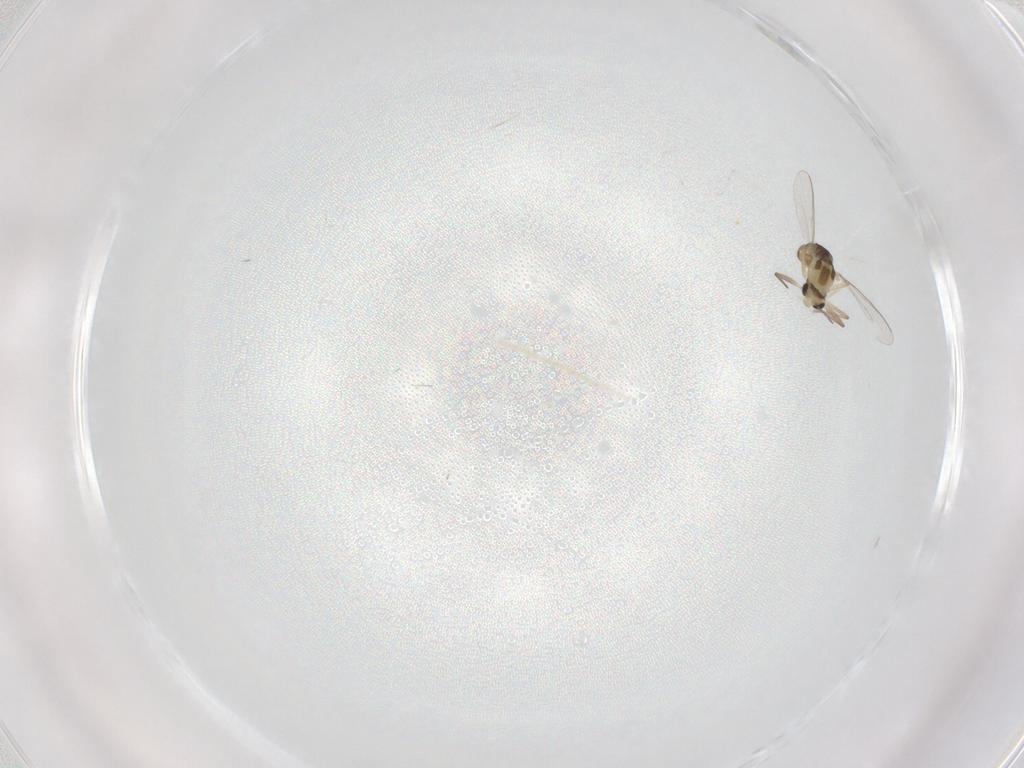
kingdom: Animalia
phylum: Arthropoda
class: Insecta
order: Diptera
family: Cecidomyiidae
